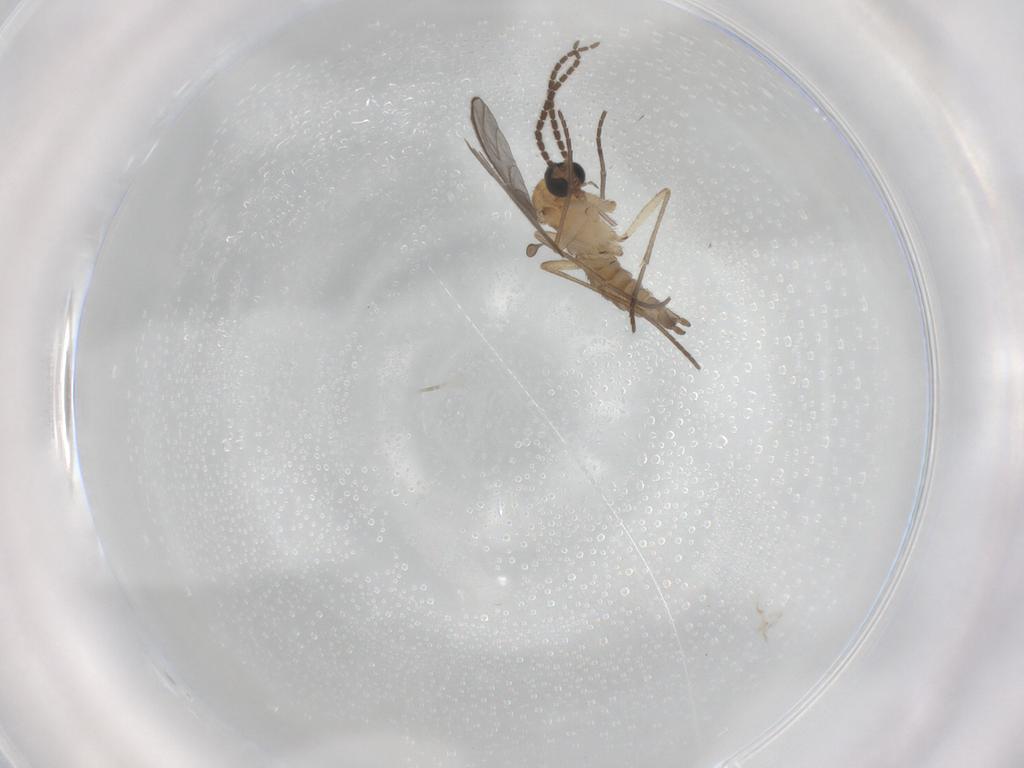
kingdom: Animalia
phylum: Arthropoda
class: Insecta
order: Diptera
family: Sciaridae
